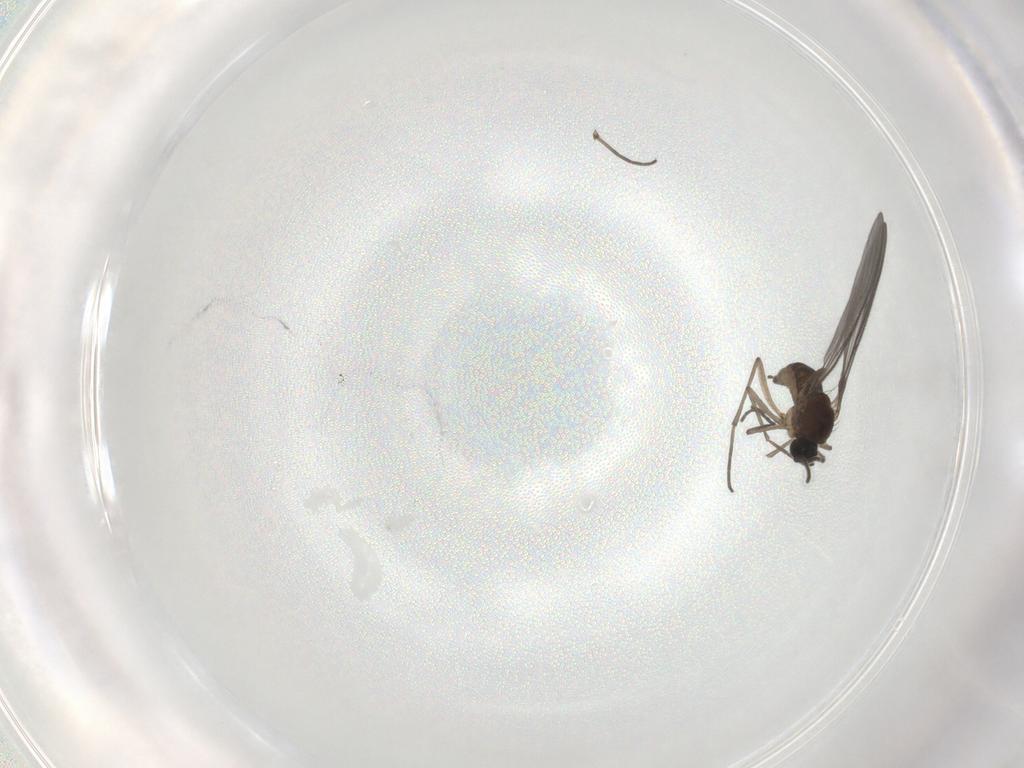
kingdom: Animalia
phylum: Arthropoda
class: Insecta
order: Diptera
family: Sciaridae
